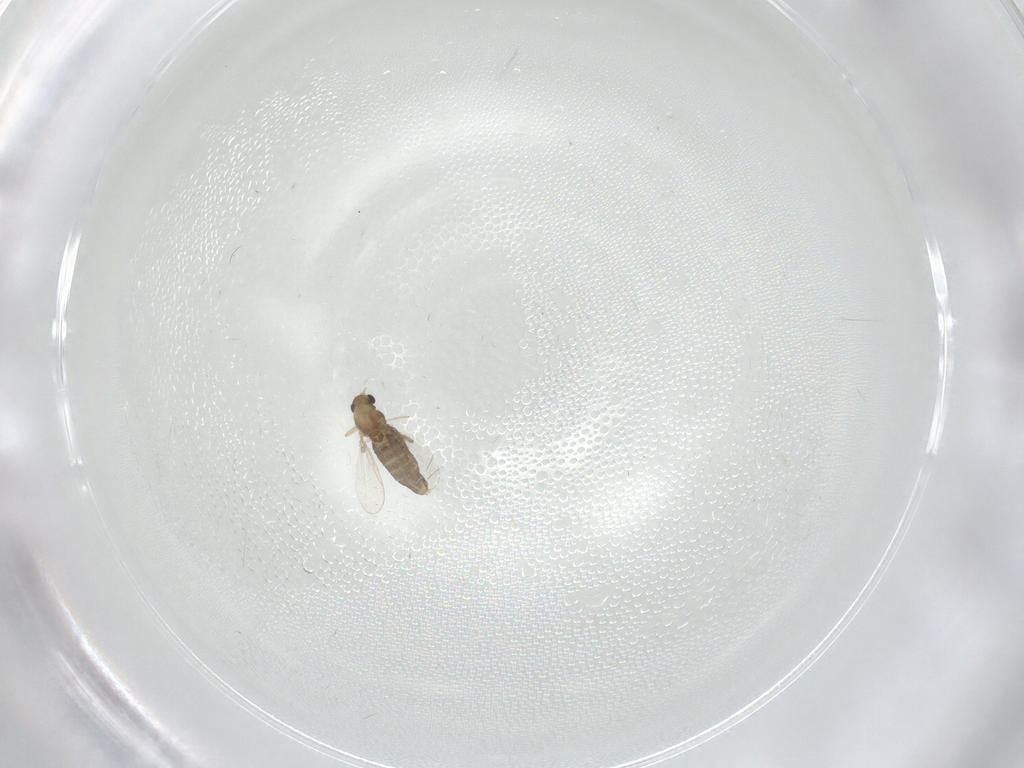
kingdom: Animalia
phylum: Arthropoda
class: Insecta
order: Diptera
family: Chironomidae
